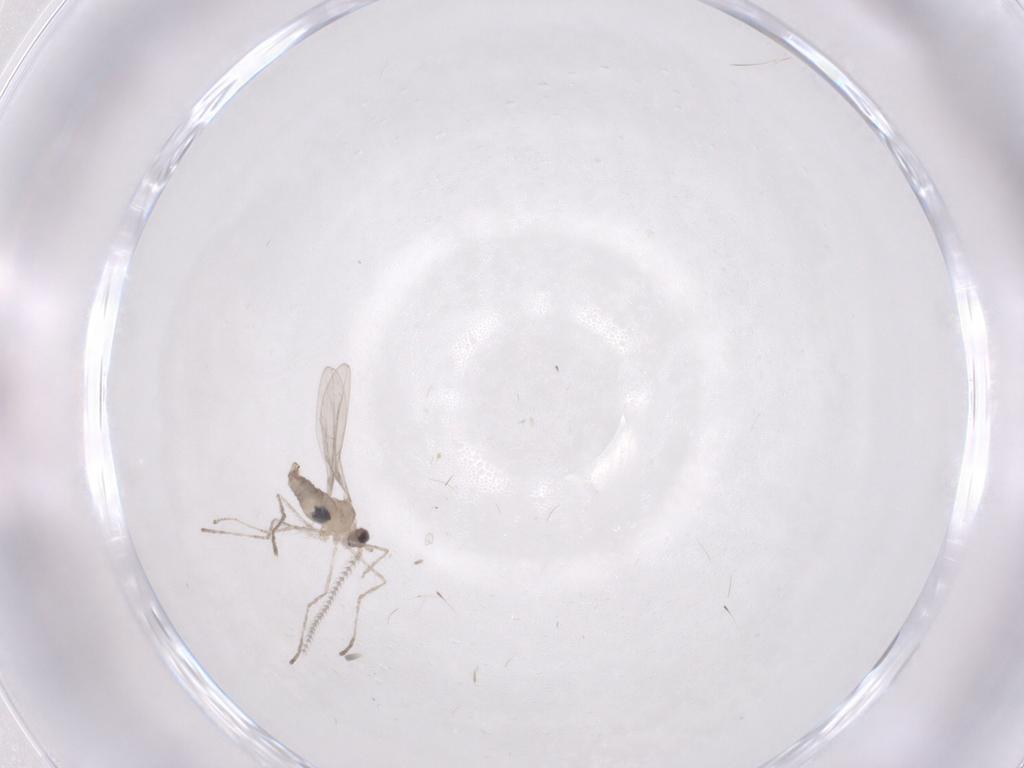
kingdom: Animalia
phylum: Arthropoda
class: Insecta
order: Diptera
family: Cecidomyiidae
